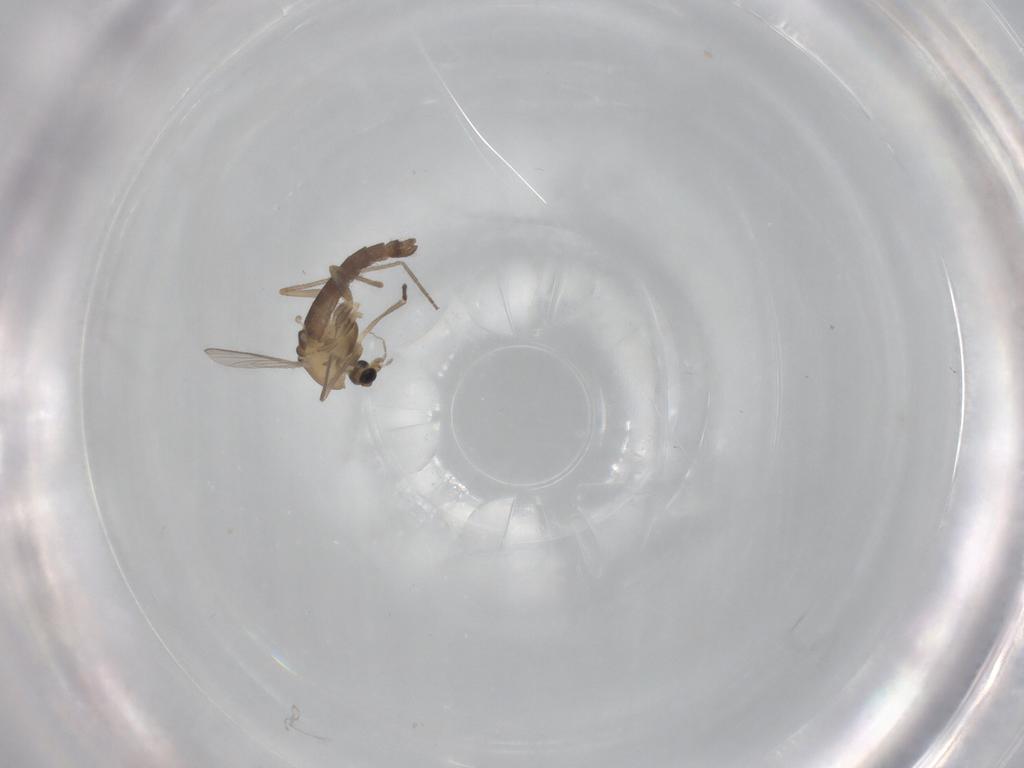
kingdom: Animalia
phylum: Arthropoda
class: Insecta
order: Diptera
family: Chironomidae
